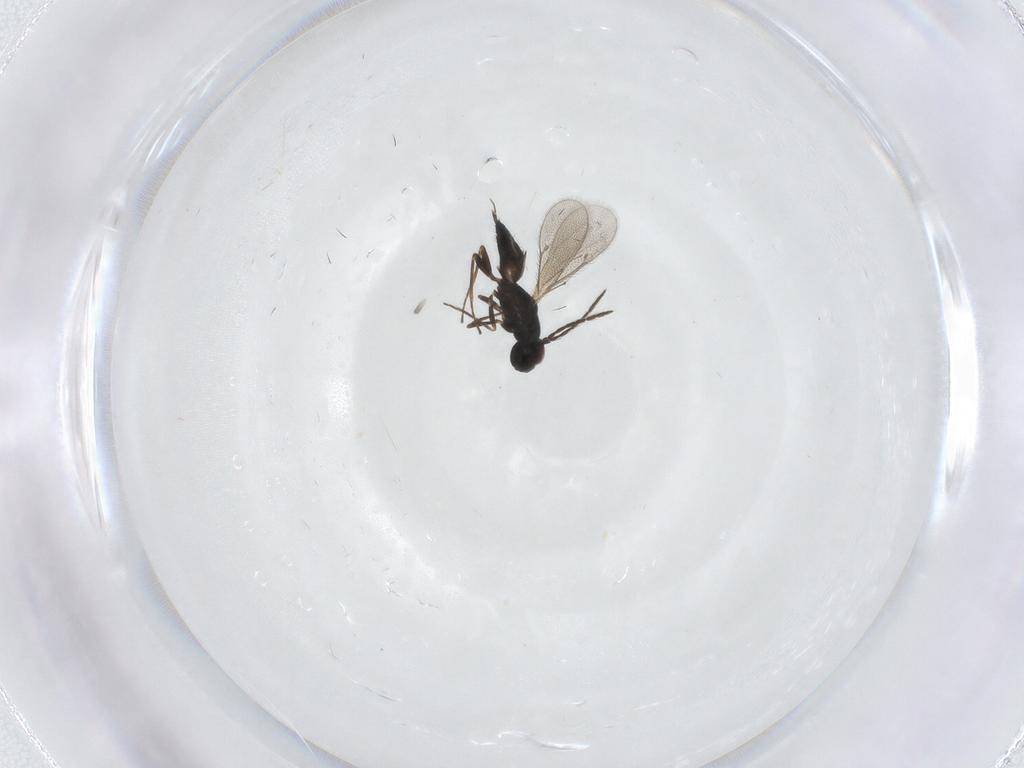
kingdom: Animalia
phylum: Arthropoda
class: Insecta
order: Hymenoptera
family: Eulophidae
